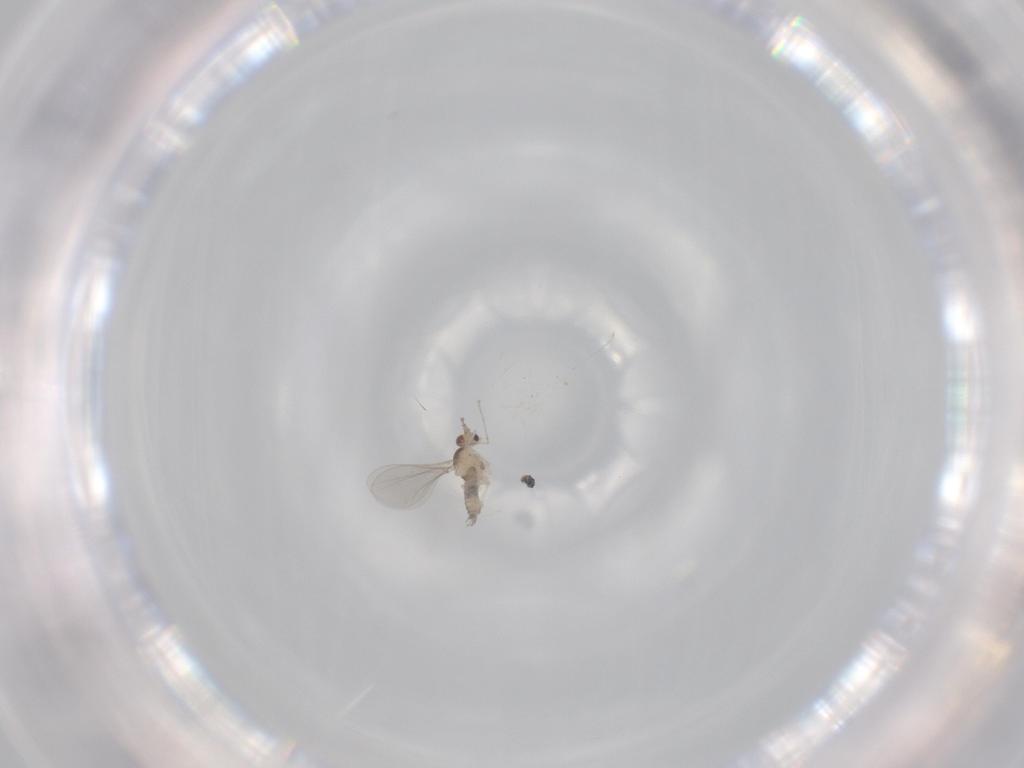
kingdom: Animalia
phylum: Arthropoda
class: Insecta
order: Diptera
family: Cecidomyiidae
